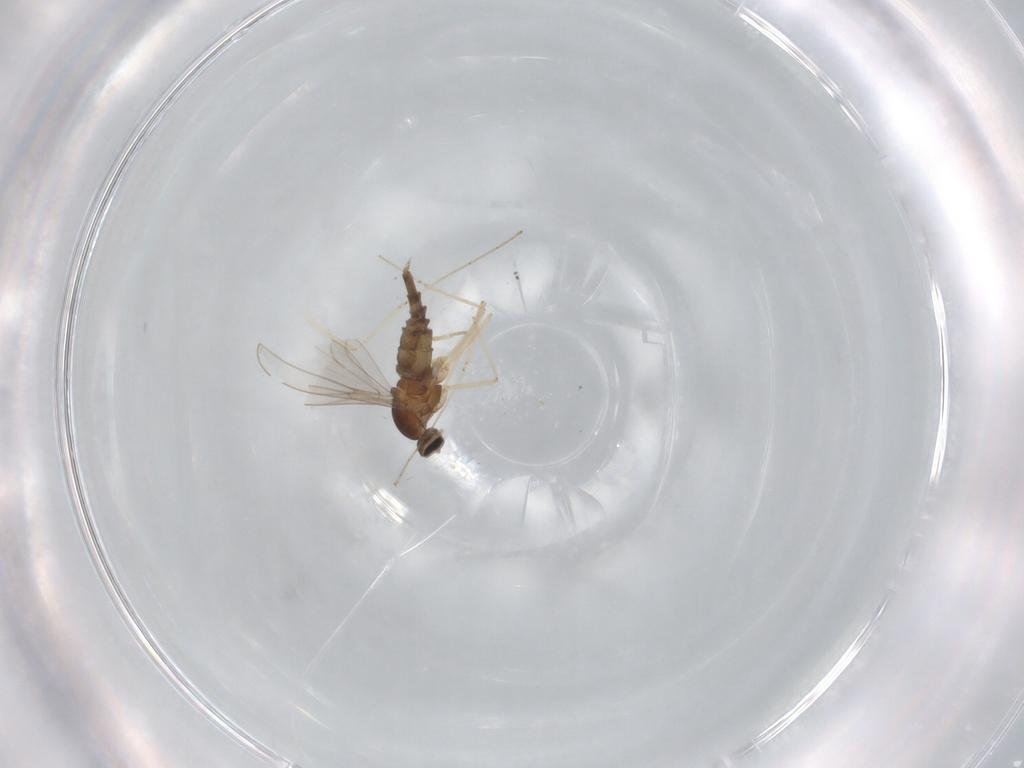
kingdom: Animalia
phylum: Arthropoda
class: Insecta
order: Diptera
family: Cecidomyiidae
